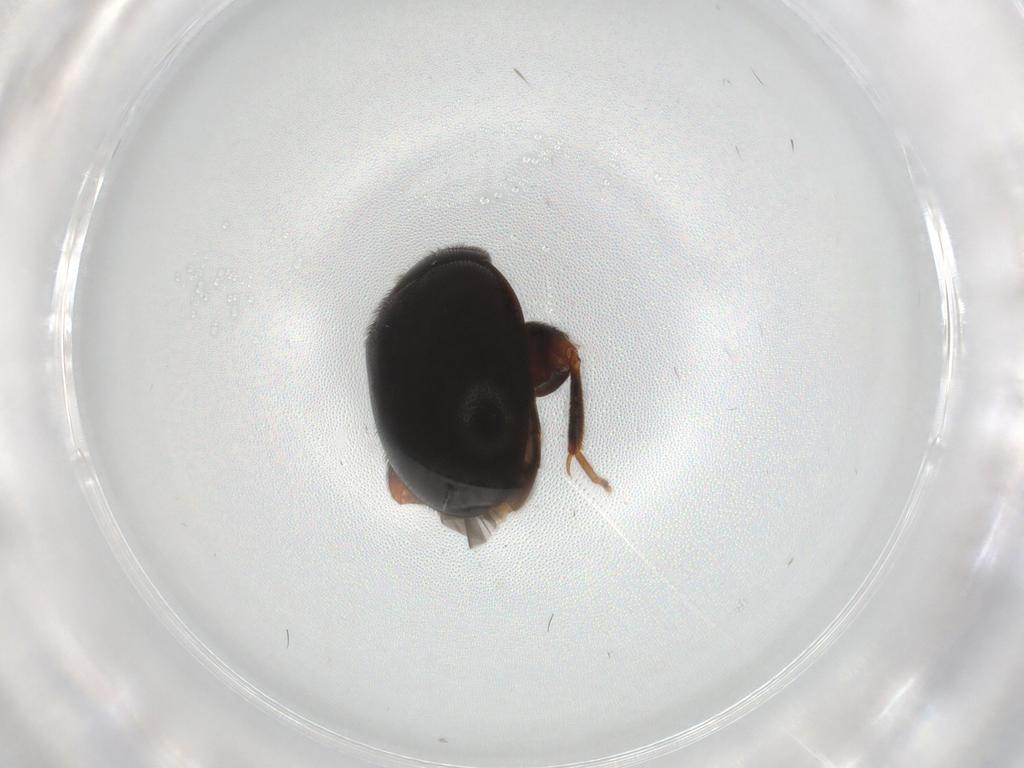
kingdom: Animalia
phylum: Arthropoda
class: Insecta
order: Coleoptera
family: Scirtidae
